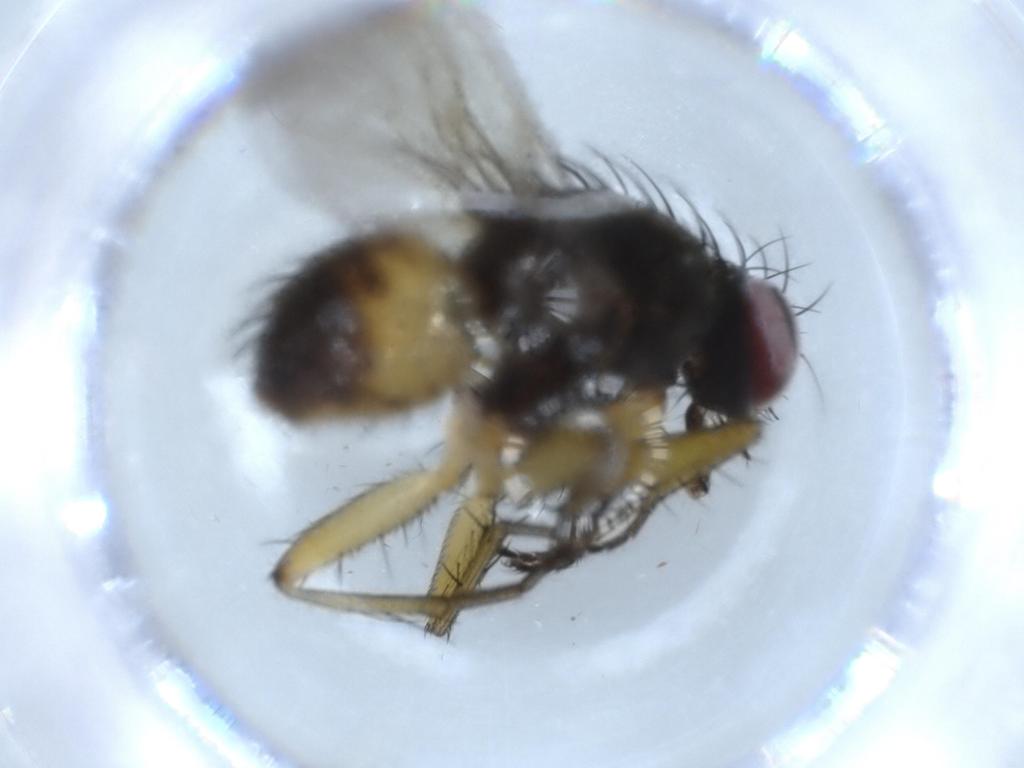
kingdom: Animalia
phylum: Arthropoda
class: Insecta
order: Diptera
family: Muscidae
